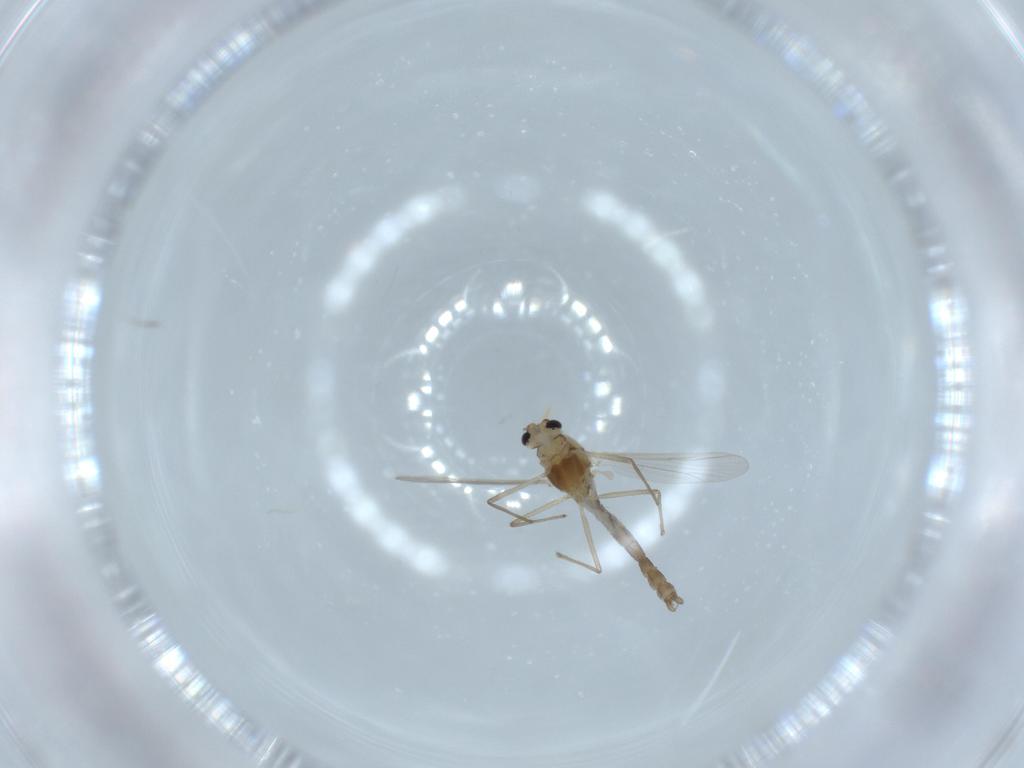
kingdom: Animalia
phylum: Arthropoda
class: Insecta
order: Diptera
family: Chironomidae
